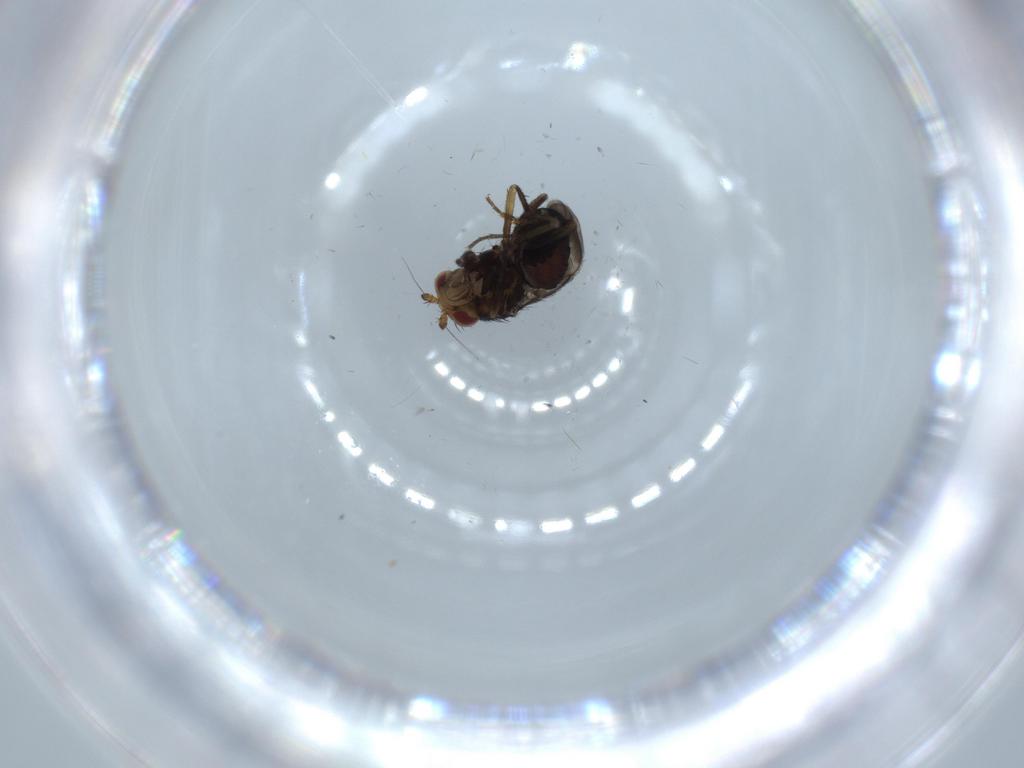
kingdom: Animalia
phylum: Arthropoda
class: Insecta
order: Diptera
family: Sphaeroceridae
